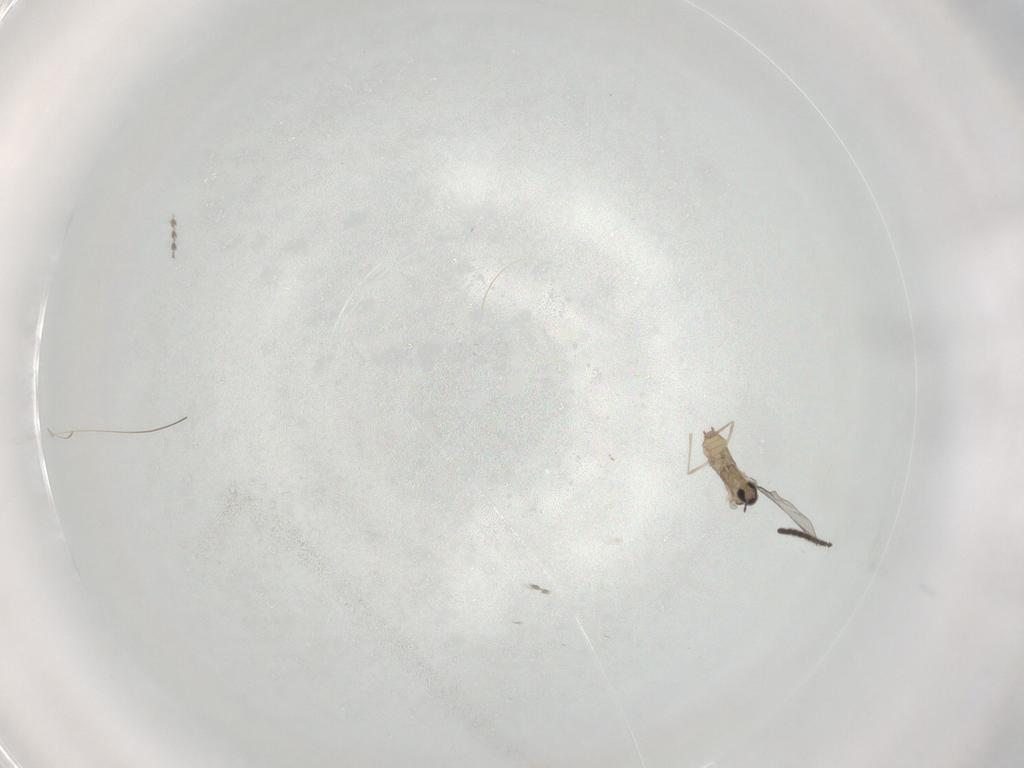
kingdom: Animalia
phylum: Arthropoda
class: Insecta
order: Diptera
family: Chironomidae
